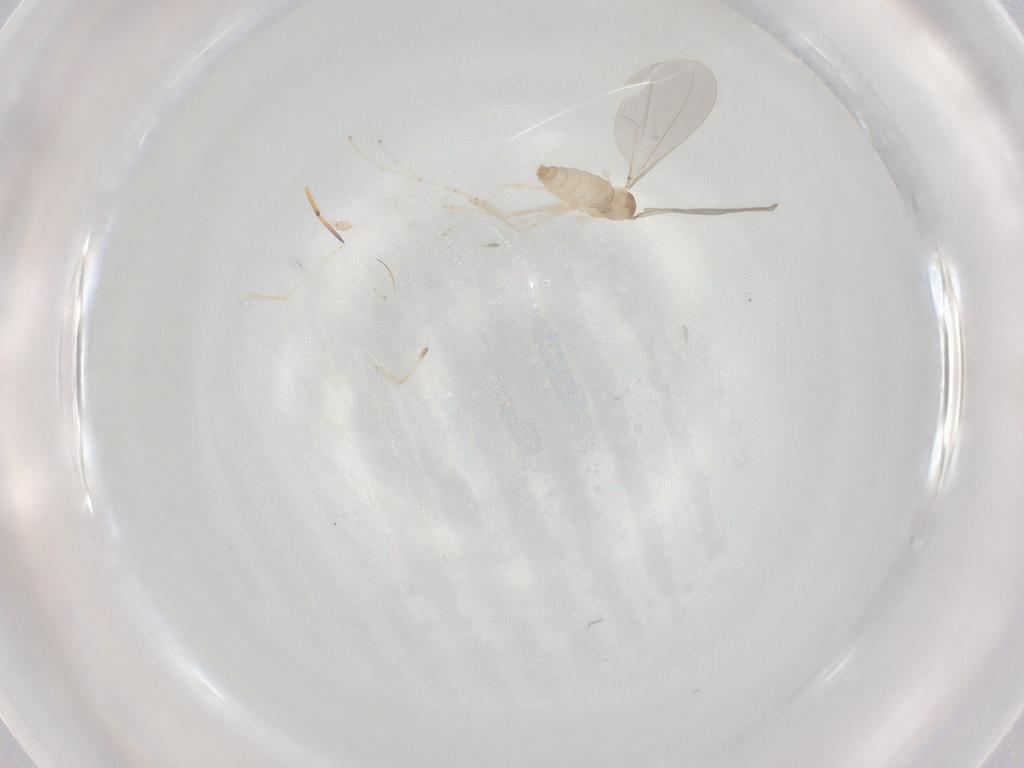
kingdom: Animalia
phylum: Arthropoda
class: Insecta
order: Diptera
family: Cecidomyiidae
